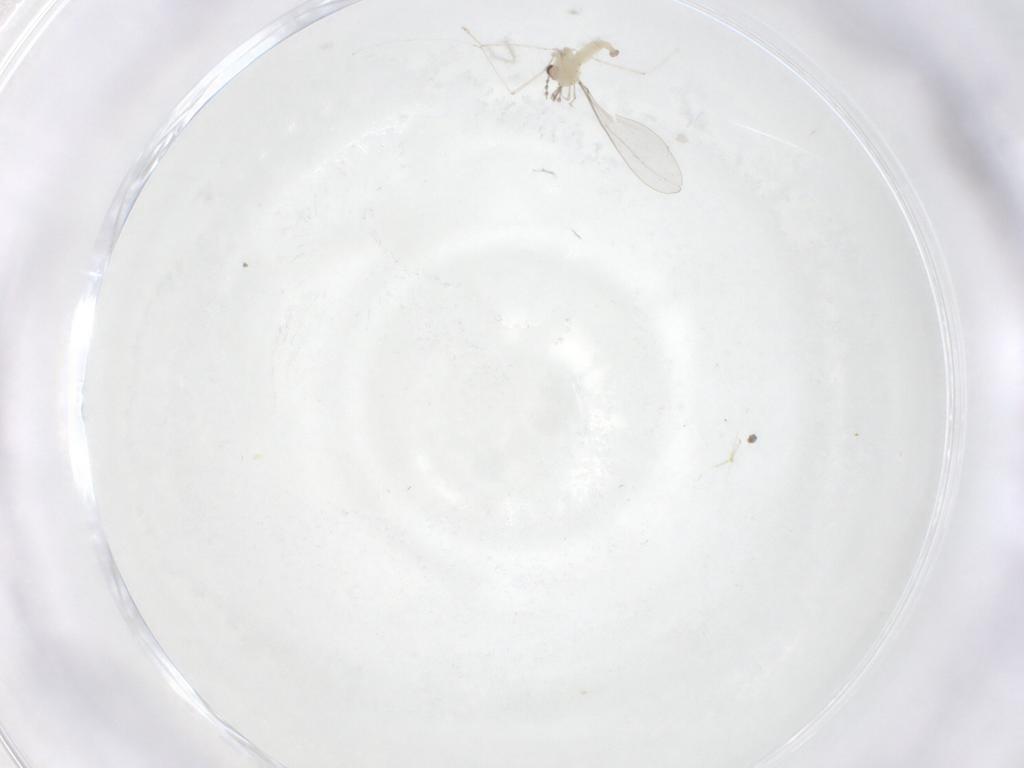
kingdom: Animalia
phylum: Arthropoda
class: Insecta
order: Diptera
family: Cecidomyiidae
